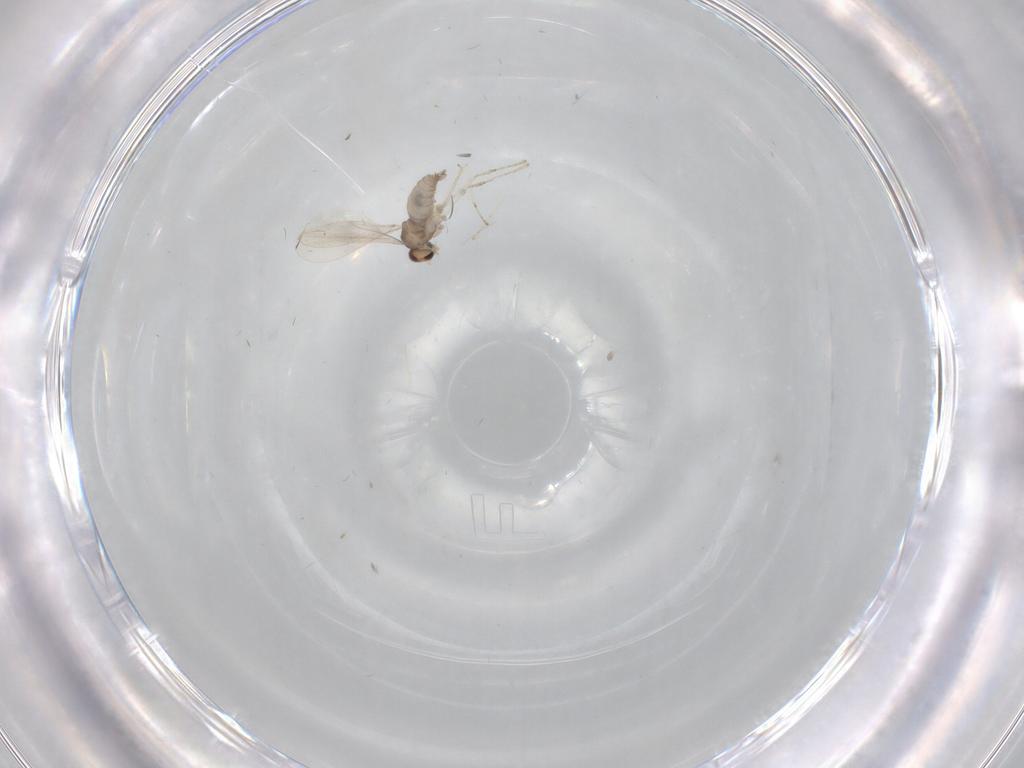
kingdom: Animalia
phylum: Arthropoda
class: Insecta
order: Diptera
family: Cecidomyiidae
